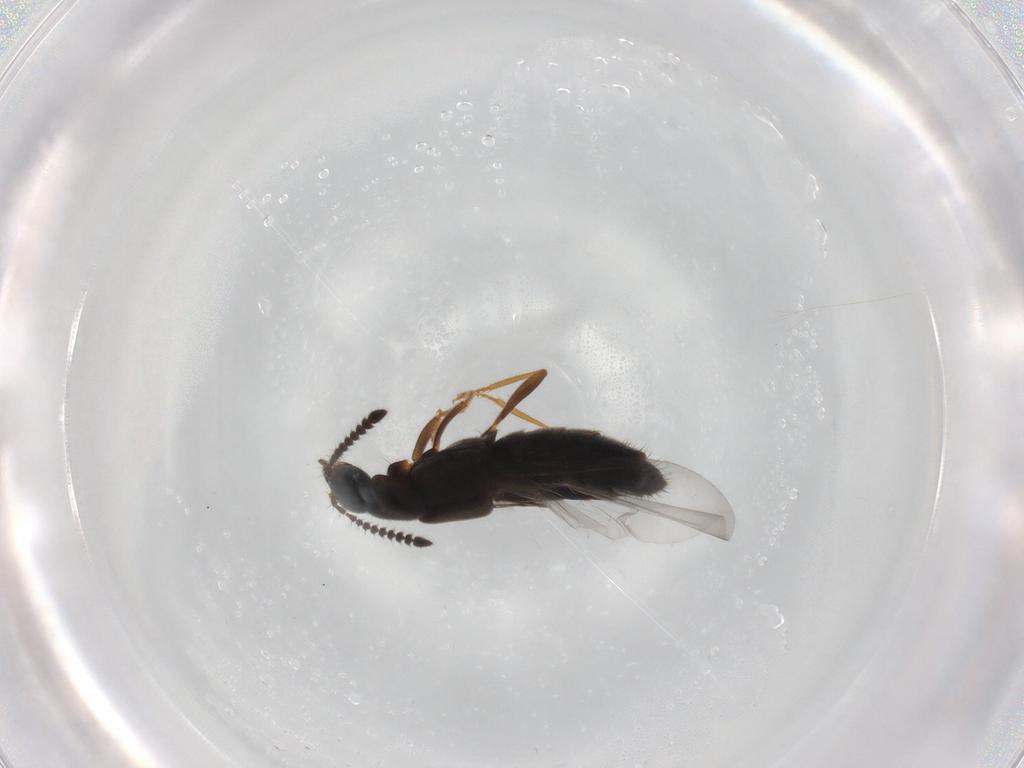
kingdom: Animalia
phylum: Arthropoda
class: Insecta
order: Coleoptera
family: Staphylinidae
